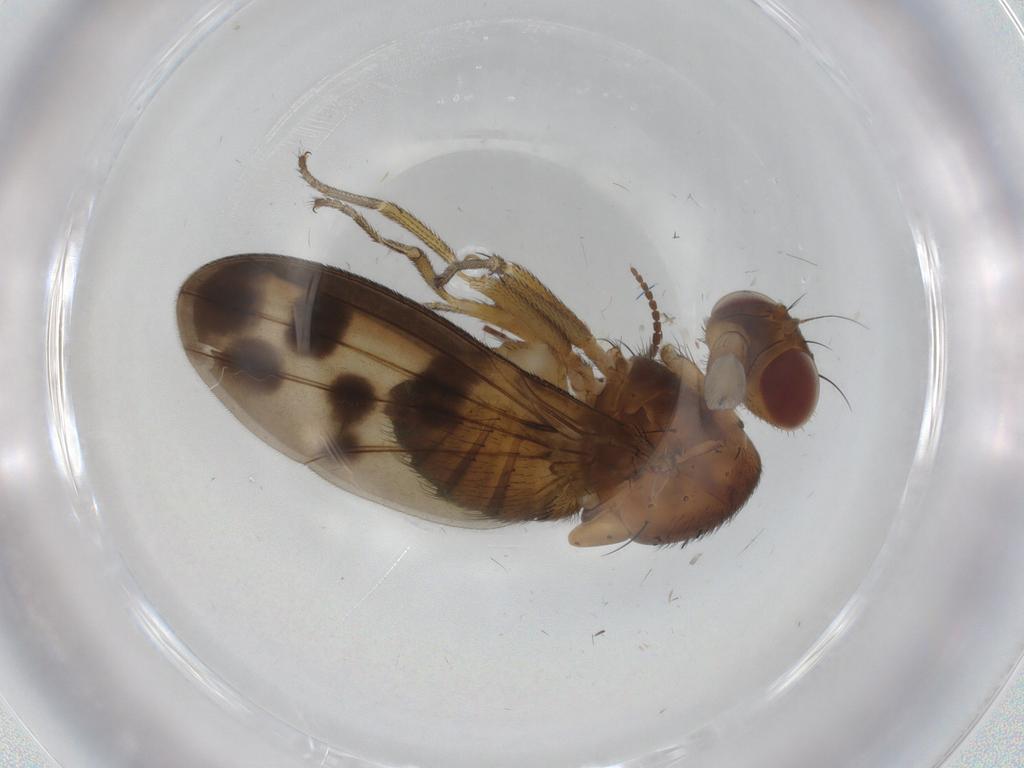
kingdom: Animalia
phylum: Arthropoda
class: Insecta
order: Diptera
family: Sciaridae
